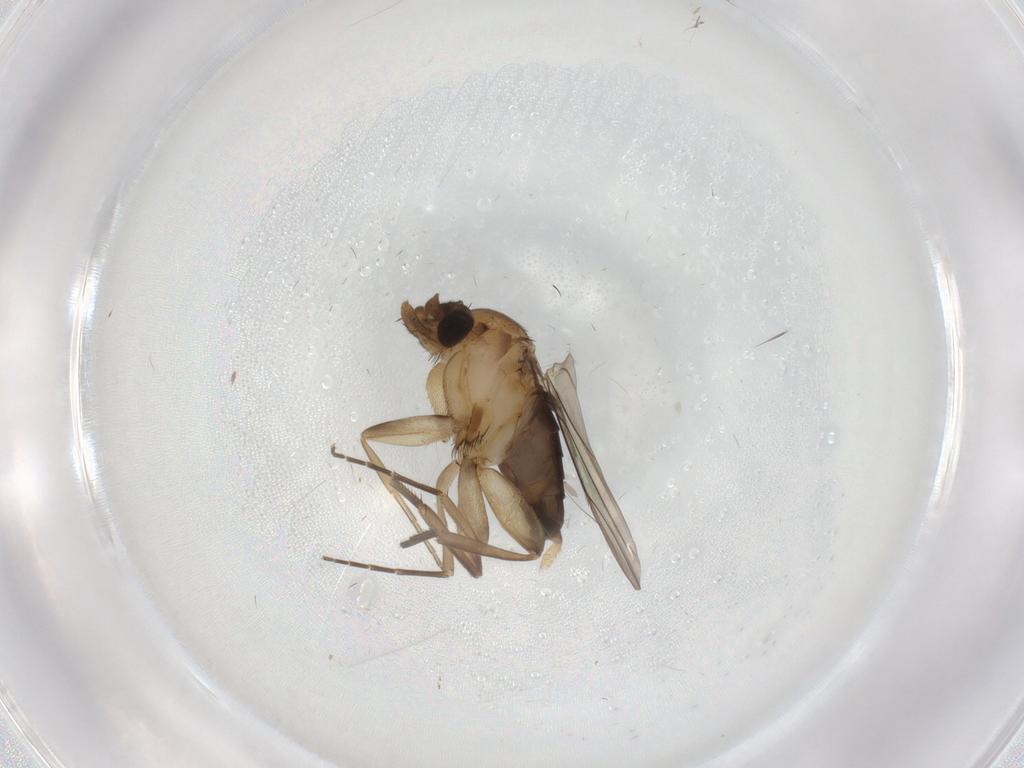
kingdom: Animalia
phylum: Arthropoda
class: Insecta
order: Diptera
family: Phoridae
